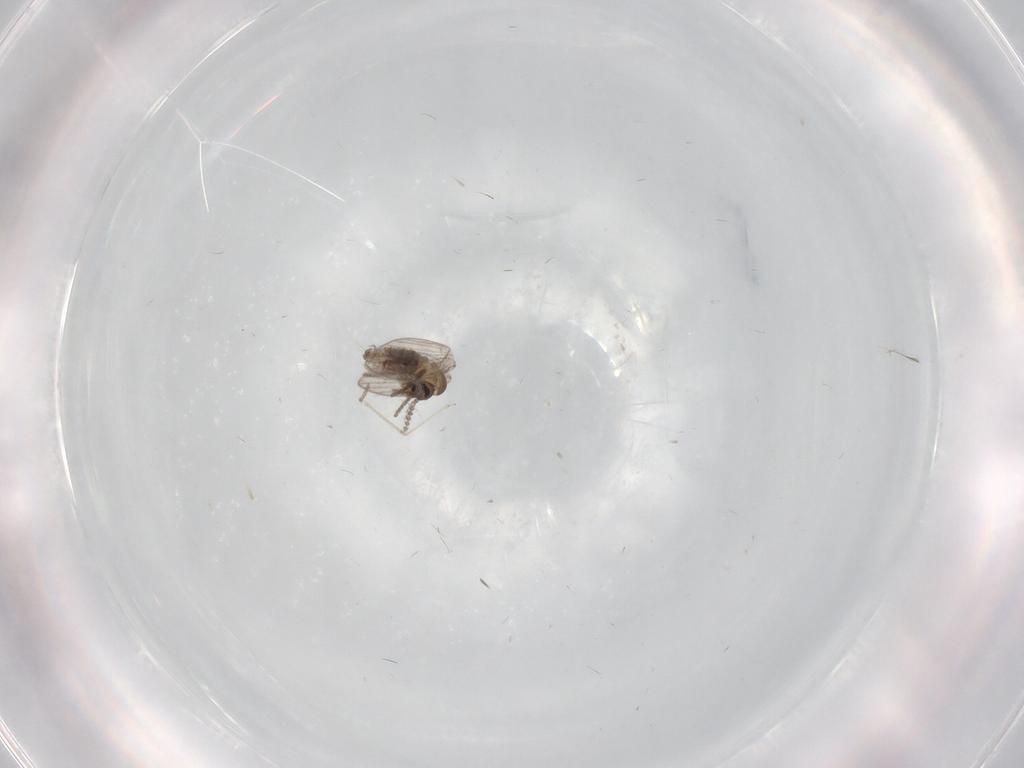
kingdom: Animalia
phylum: Arthropoda
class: Insecta
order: Diptera
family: Psychodidae
